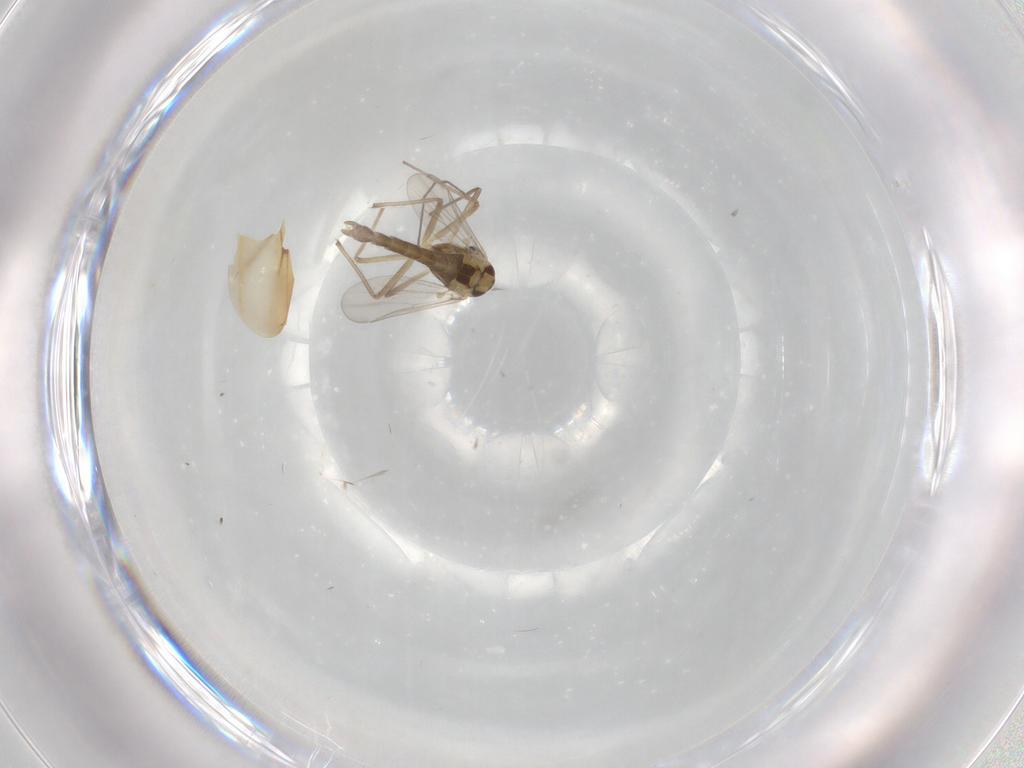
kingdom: Animalia
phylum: Arthropoda
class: Insecta
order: Diptera
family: Chironomidae
